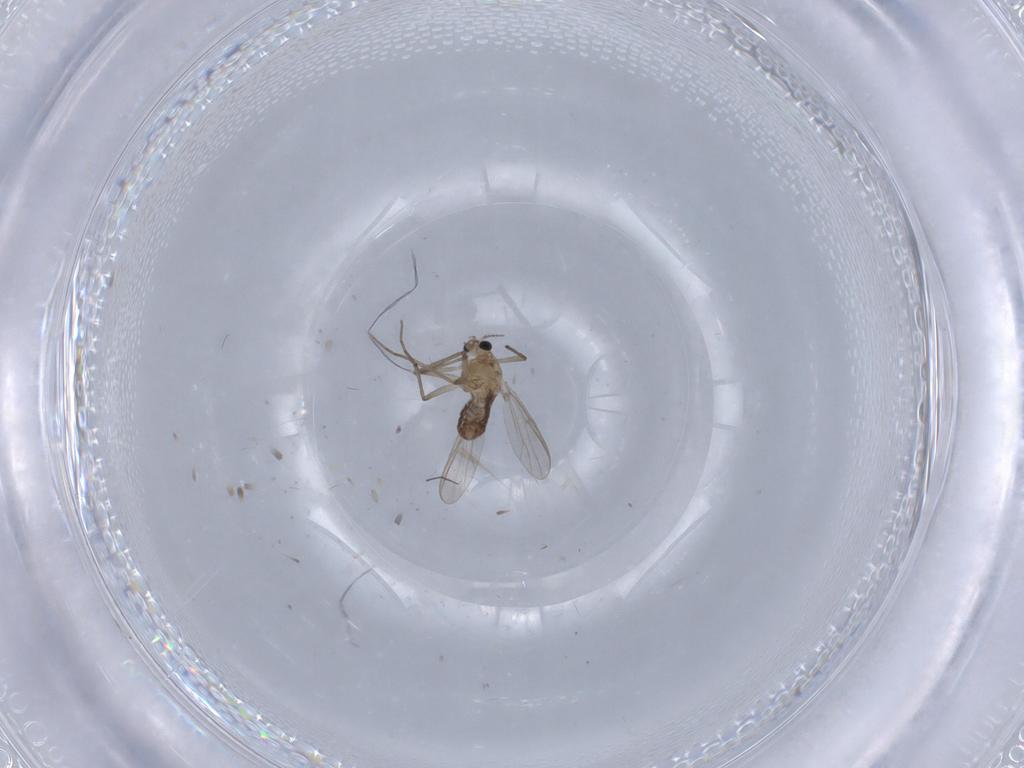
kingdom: Animalia
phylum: Arthropoda
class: Insecta
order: Diptera
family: Chironomidae
